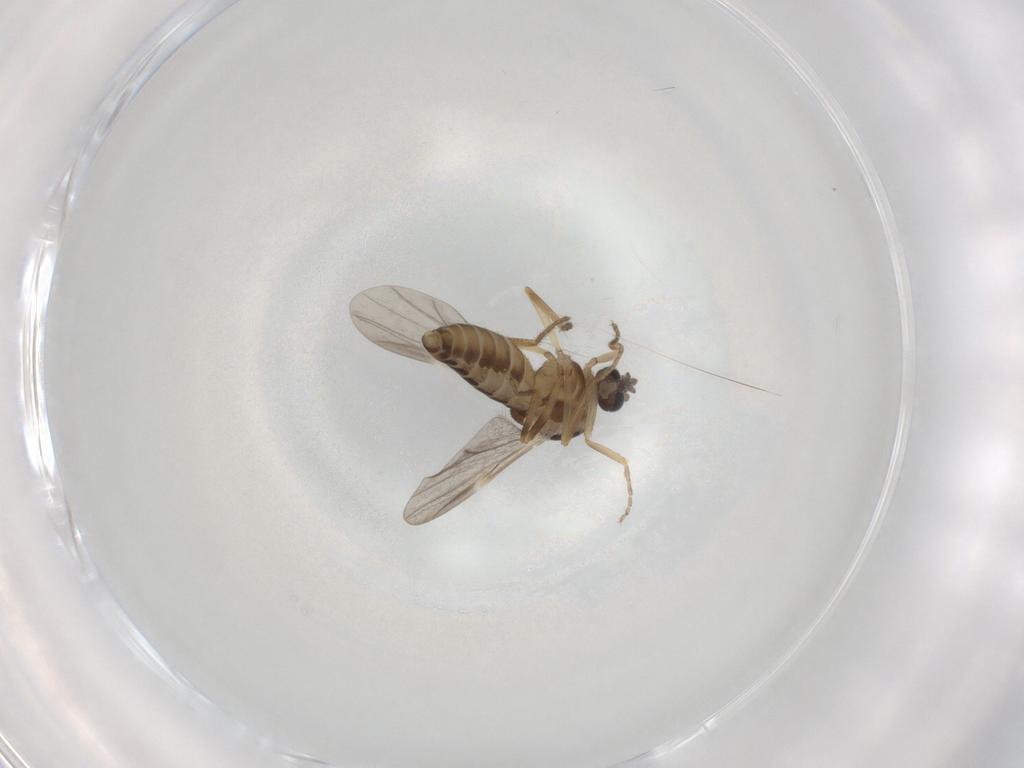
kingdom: Animalia
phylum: Arthropoda
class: Insecta
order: Diptera
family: Ceratopogonidae
